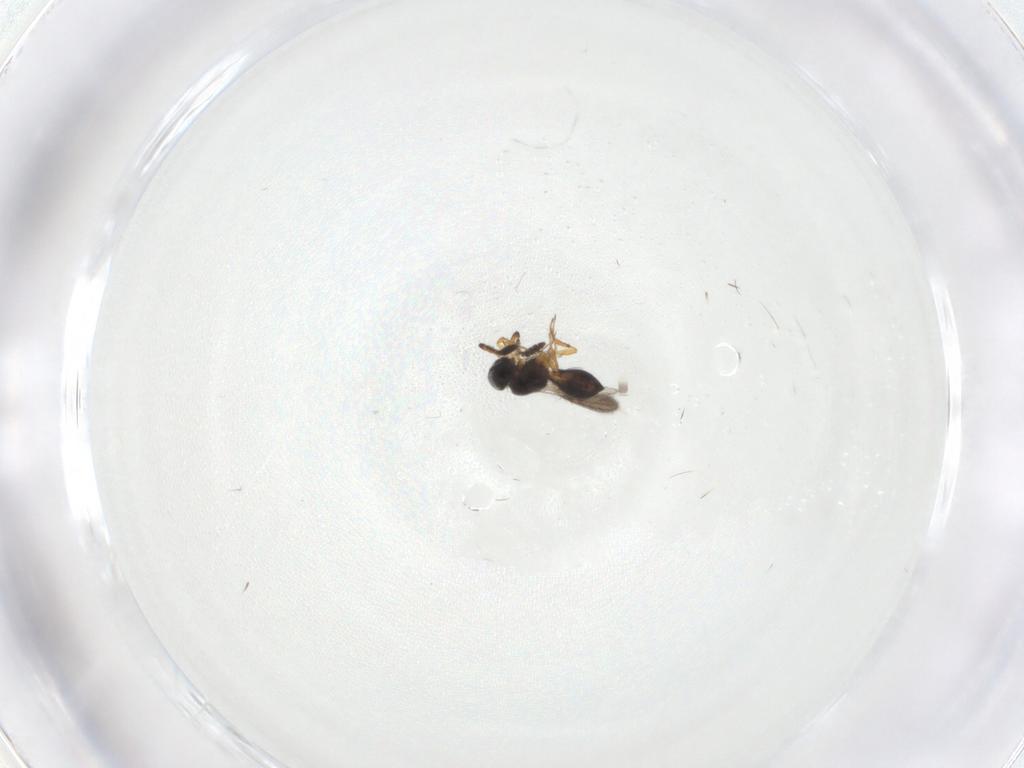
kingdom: Animalia
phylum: Arthropoda
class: Insecta
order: Hymenoptera
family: Scelionidae
